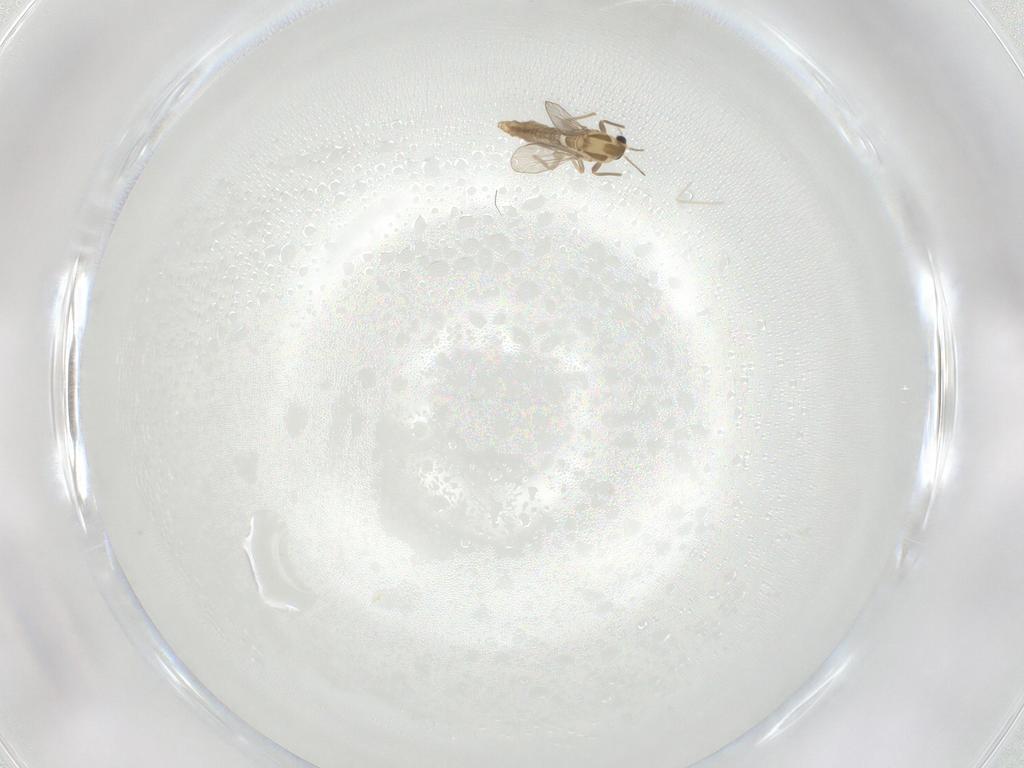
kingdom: Animalia
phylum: Arthropoda
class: Insecta
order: Diptera
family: Chironomidae
